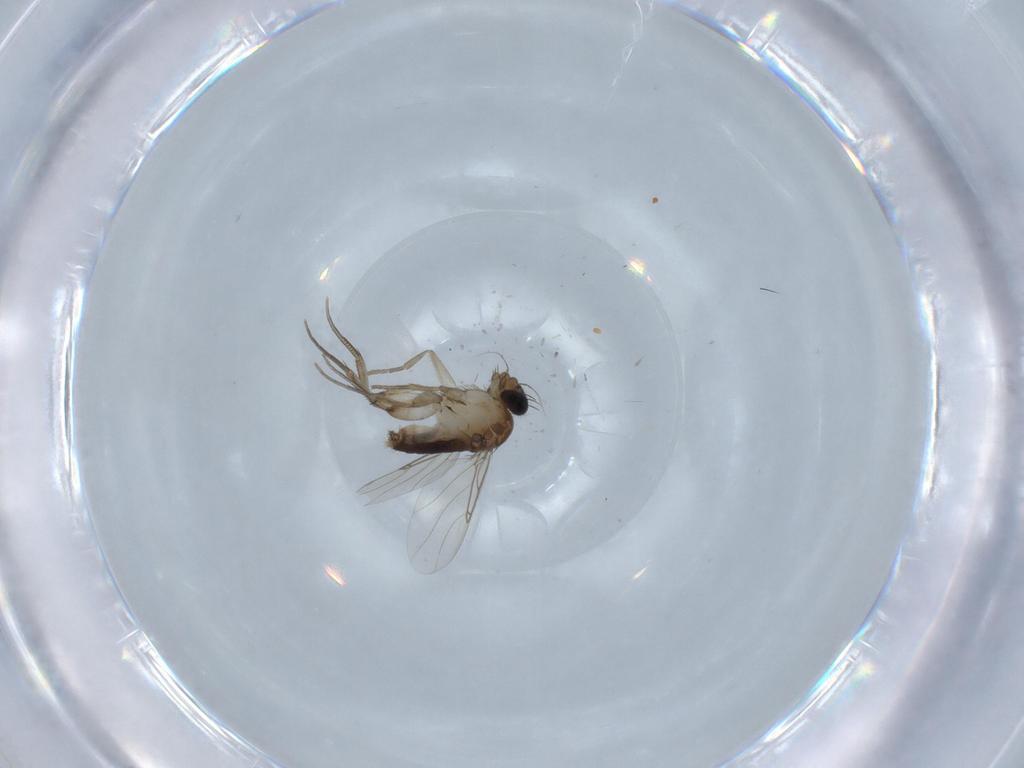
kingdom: Animalia
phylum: Arthropoda
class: Insecta
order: Diptera
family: Phoridae
